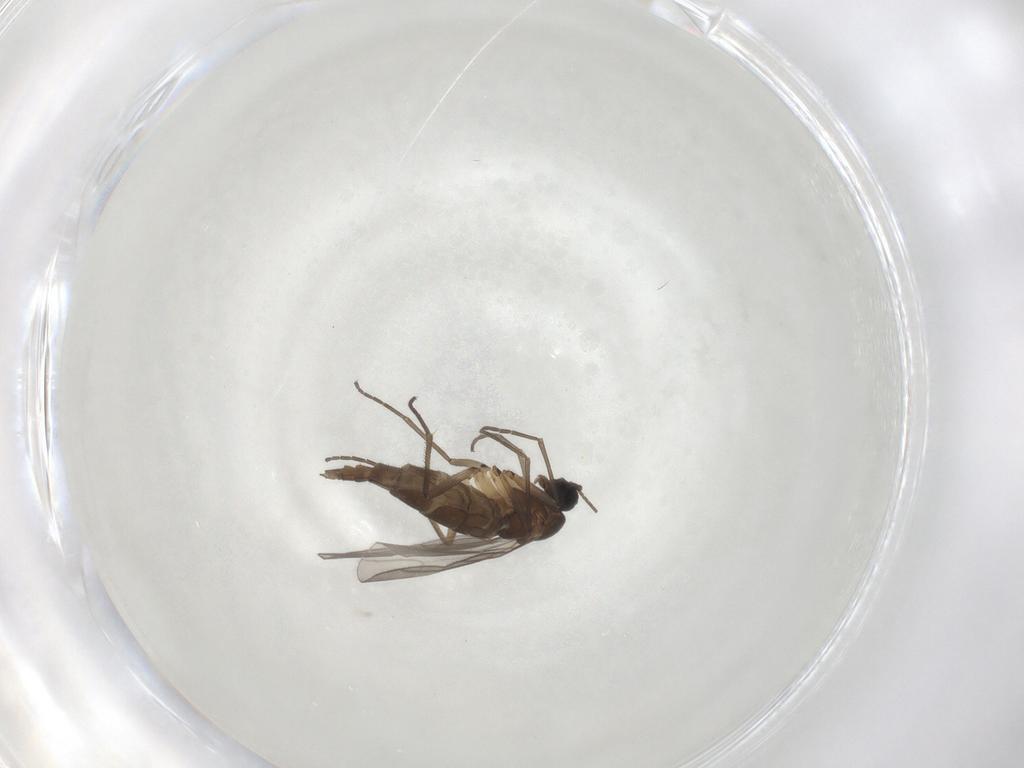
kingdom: Animalia
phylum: Arthropoda
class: Insecta
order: Diptera
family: Sciaridae
